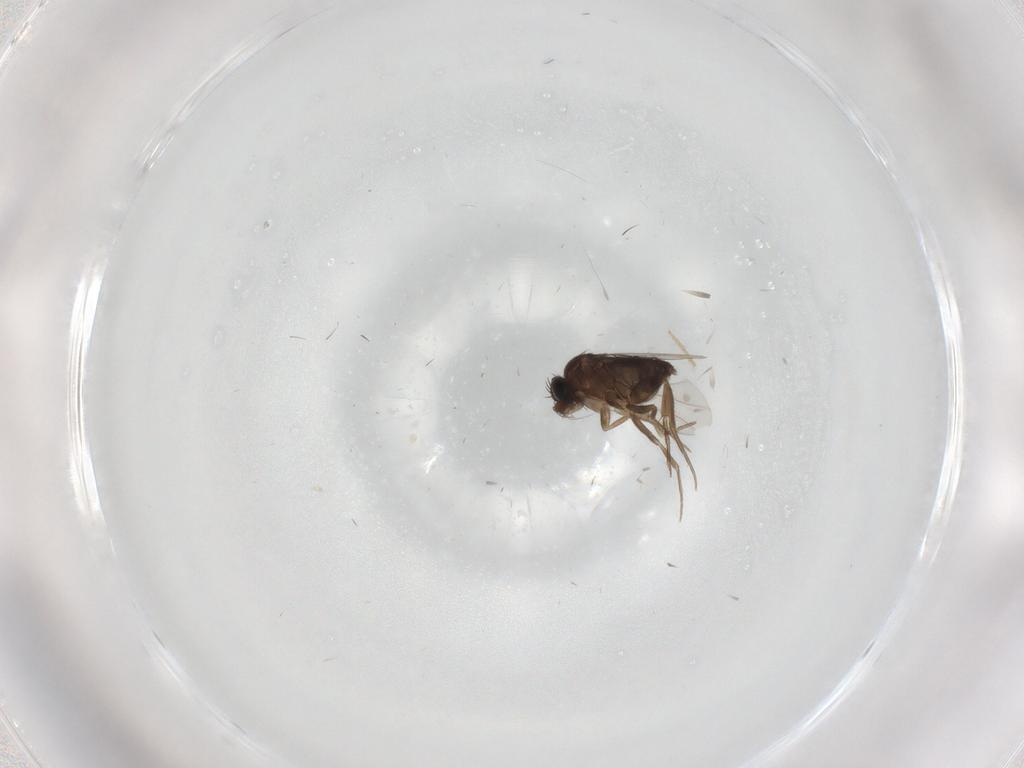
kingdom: Animalia
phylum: Arthropoda
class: Insecta
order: Diptera
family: Phoridae
